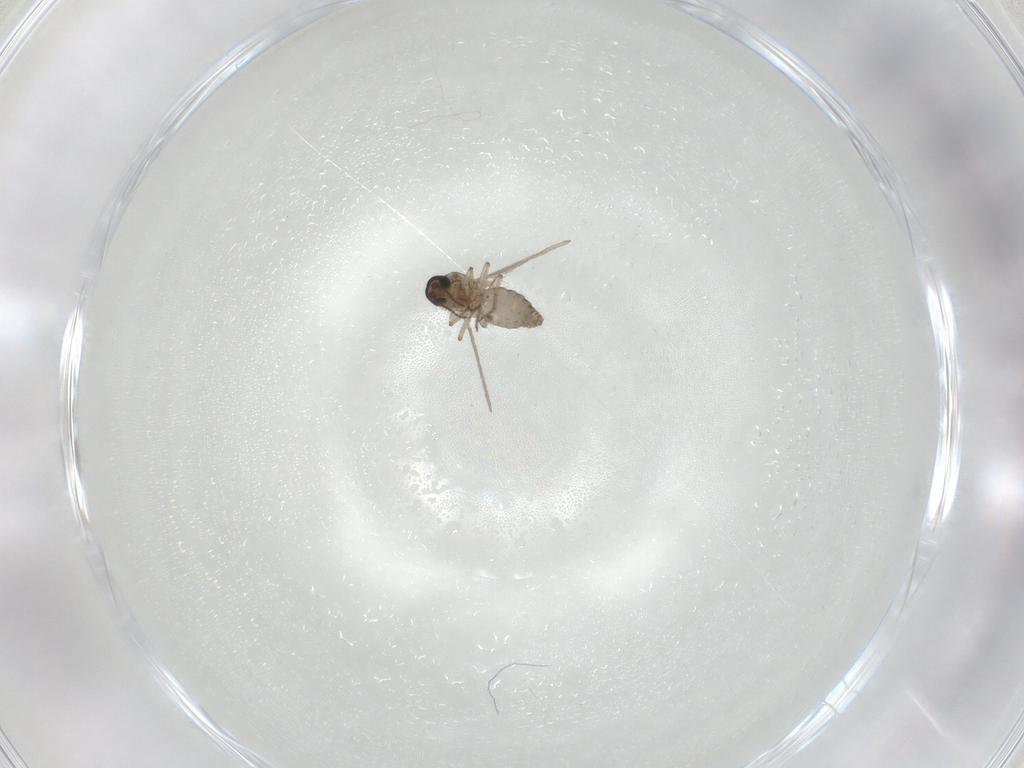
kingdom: Animalia
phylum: Arthropoda
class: Insecta
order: Diptera
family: Ceratopogonidae
